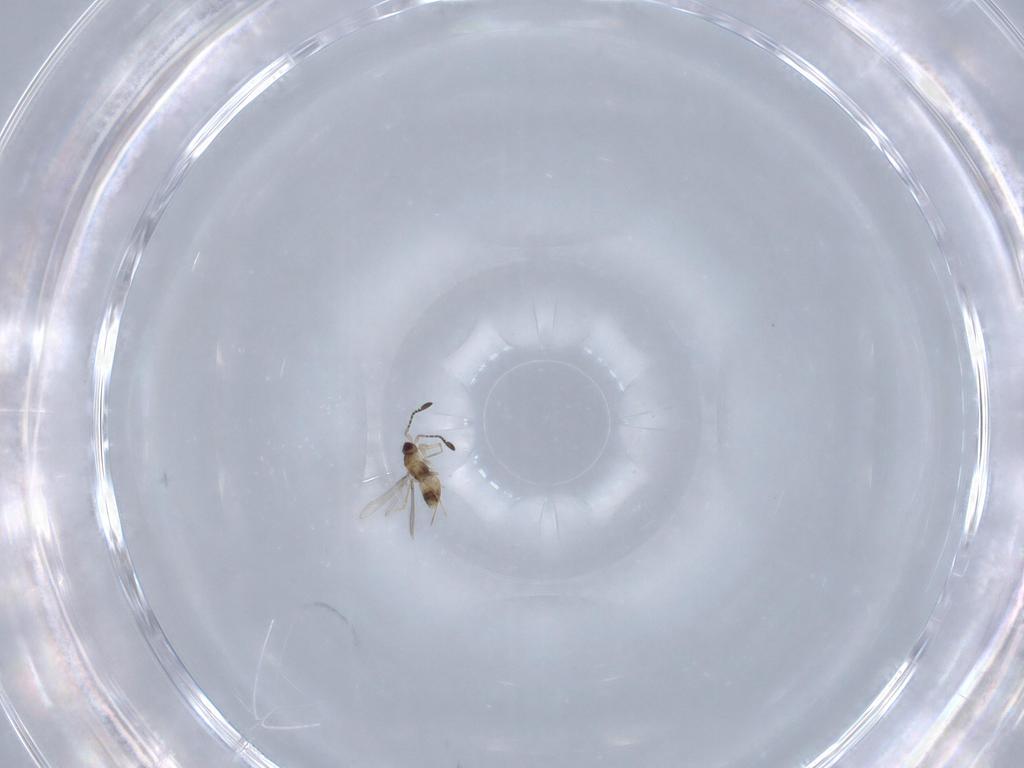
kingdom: Animalia
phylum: Arthropoda
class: Insecta
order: Hymenoptera
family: Mymaridae
